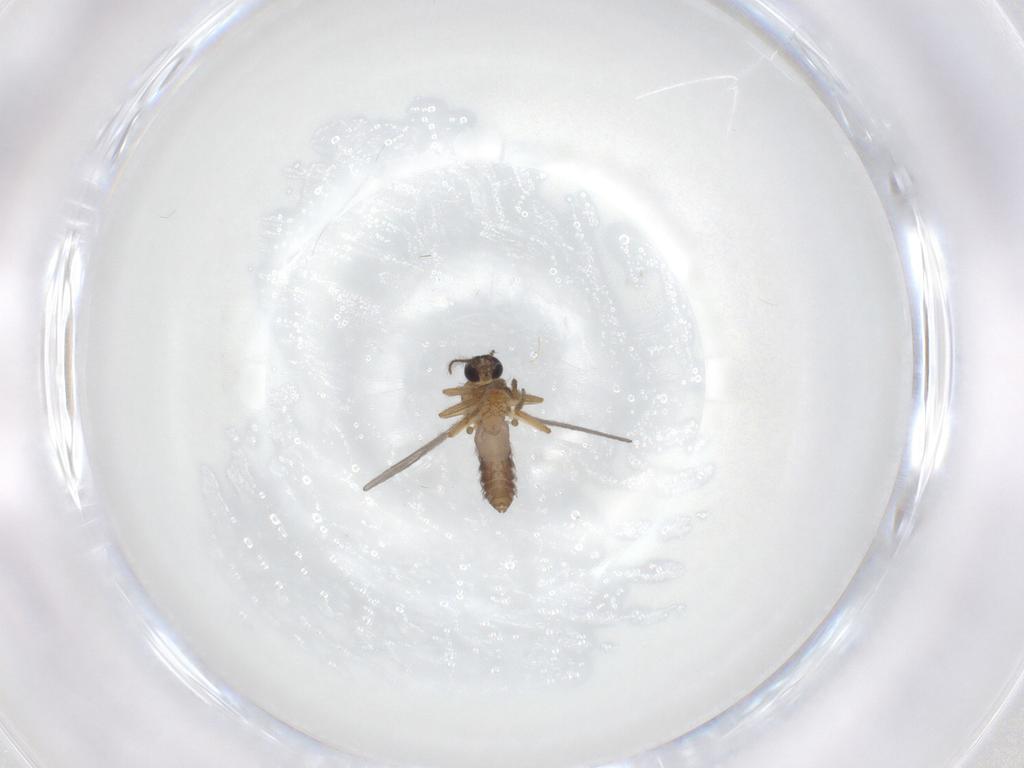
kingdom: Animalia
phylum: Arthropoda
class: Insecta
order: Diptera
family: Ceratopogonidae
